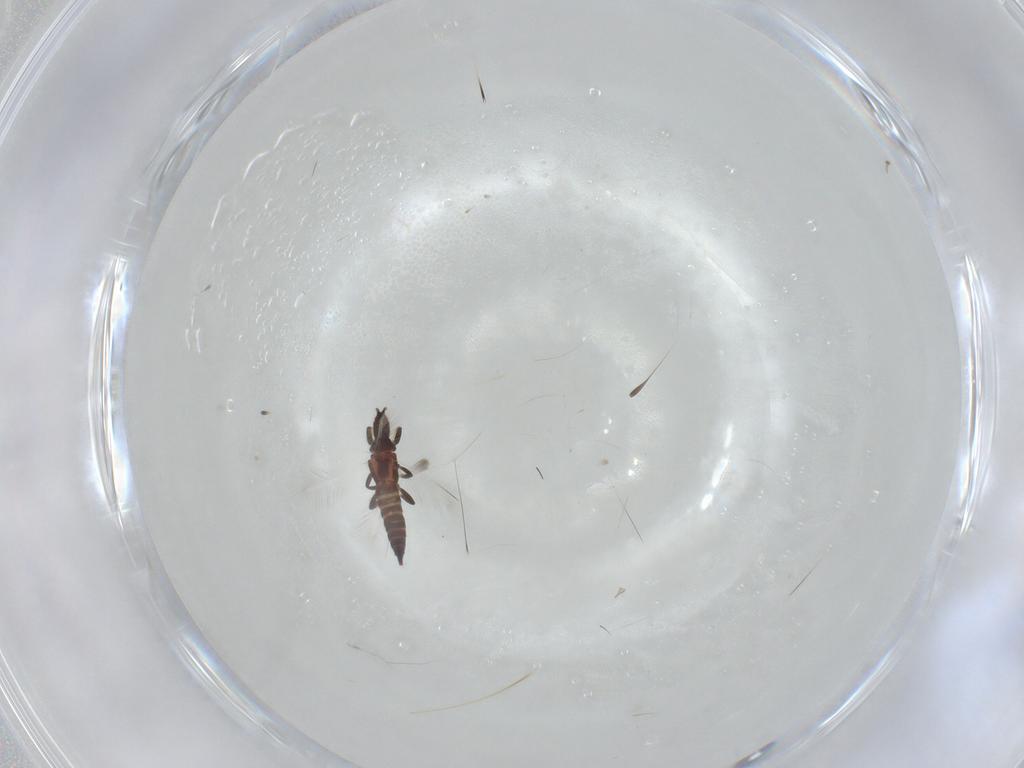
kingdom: Animalia
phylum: Arthropoda
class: Insecta
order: Thysanoptera
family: Phlaeothripidae
